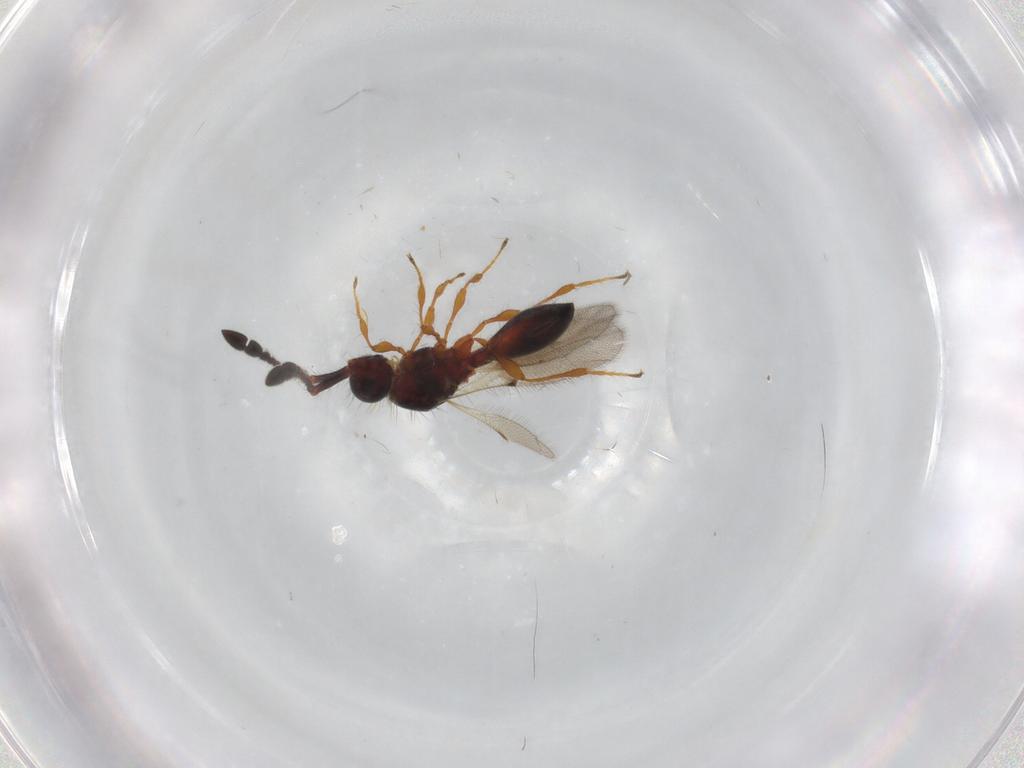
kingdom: Animalia
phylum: Arthropoda
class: Insecta
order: Hymenoptera
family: Diapriidae
